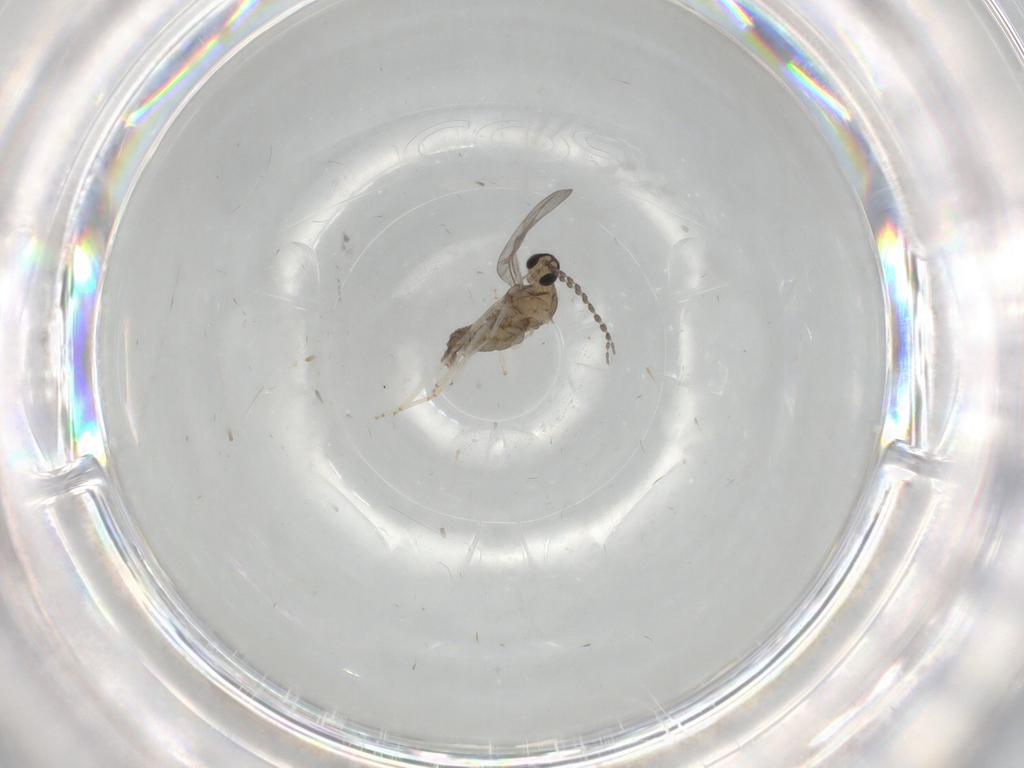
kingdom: Animalia
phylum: Arthropoda
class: Insecta
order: Diptera
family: Cecidomyiidae
